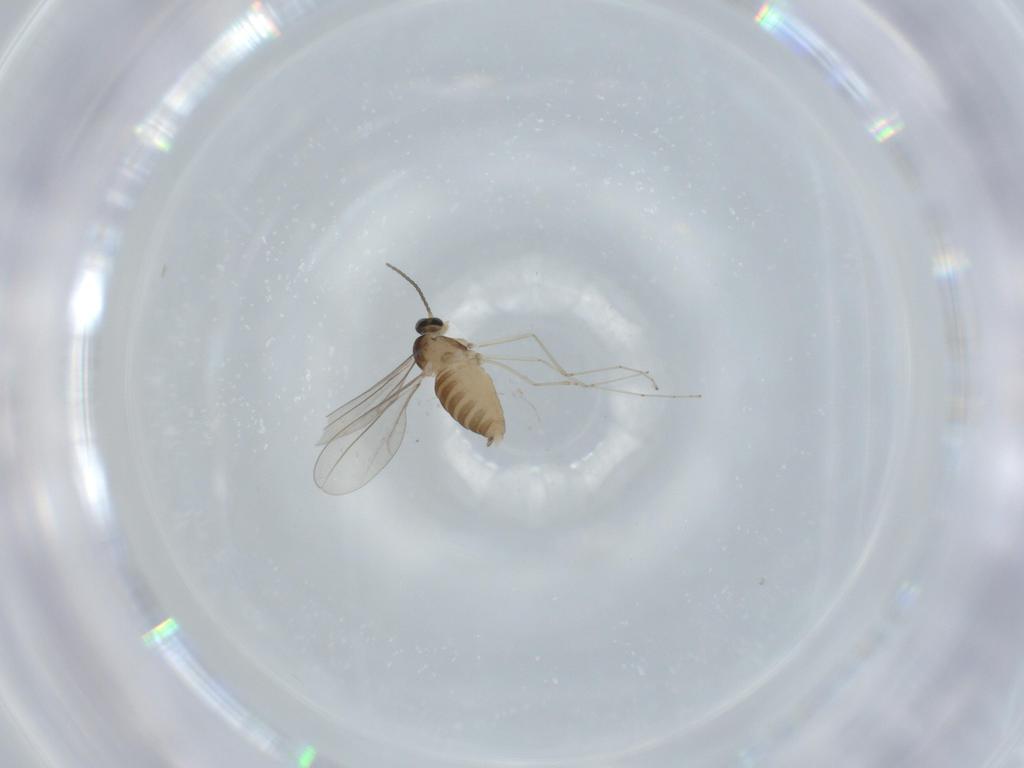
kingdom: Animalia
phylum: Arthropoda
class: Insecta
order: Diptera
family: Cecidomyiidae
